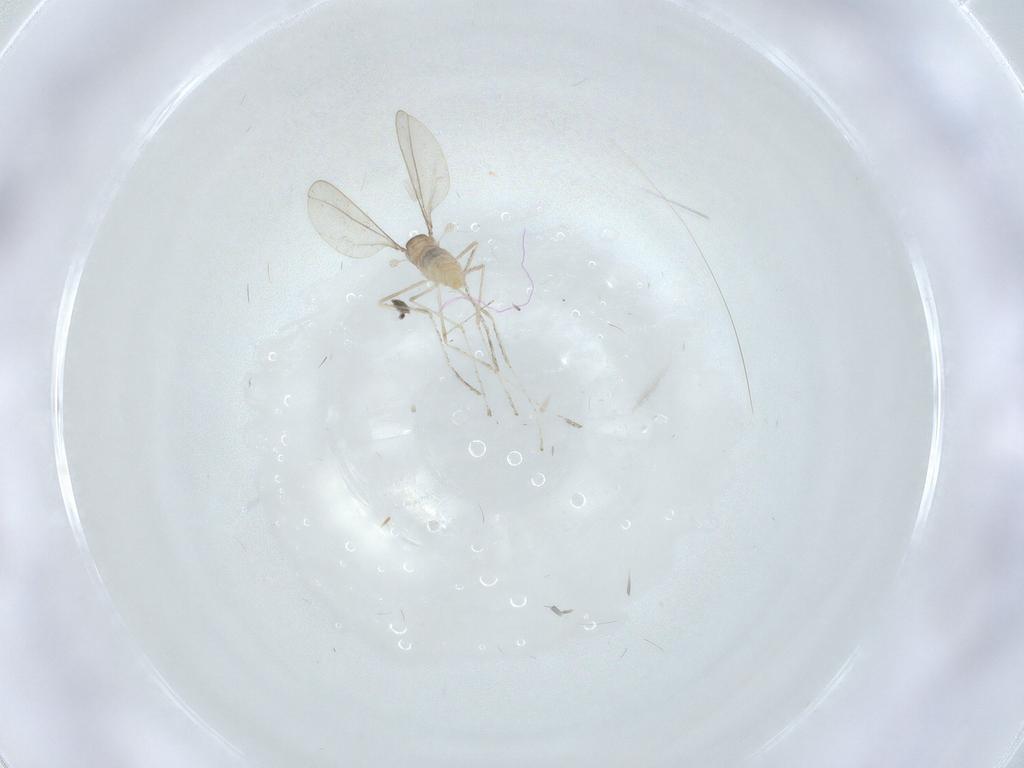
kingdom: Animalia
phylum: Arthropoda
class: Insecta
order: Diptera
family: Cecidomyiidae
